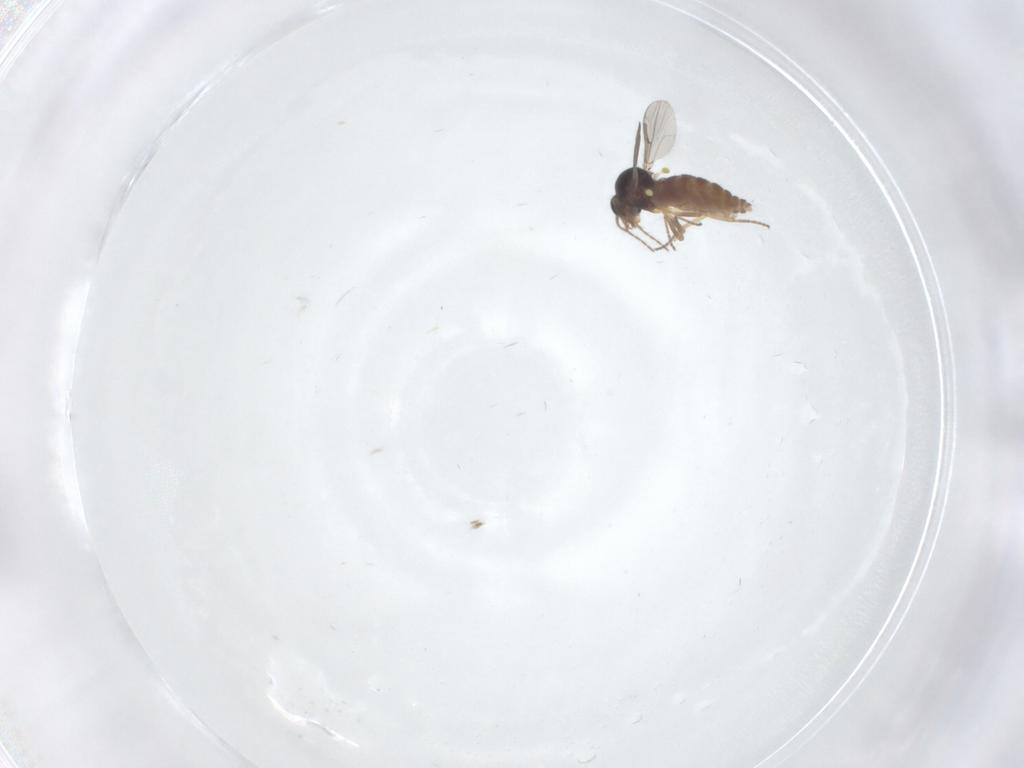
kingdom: Animalia
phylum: Arthropoda
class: Insecta
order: Diptera
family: Ceratopogonidae
